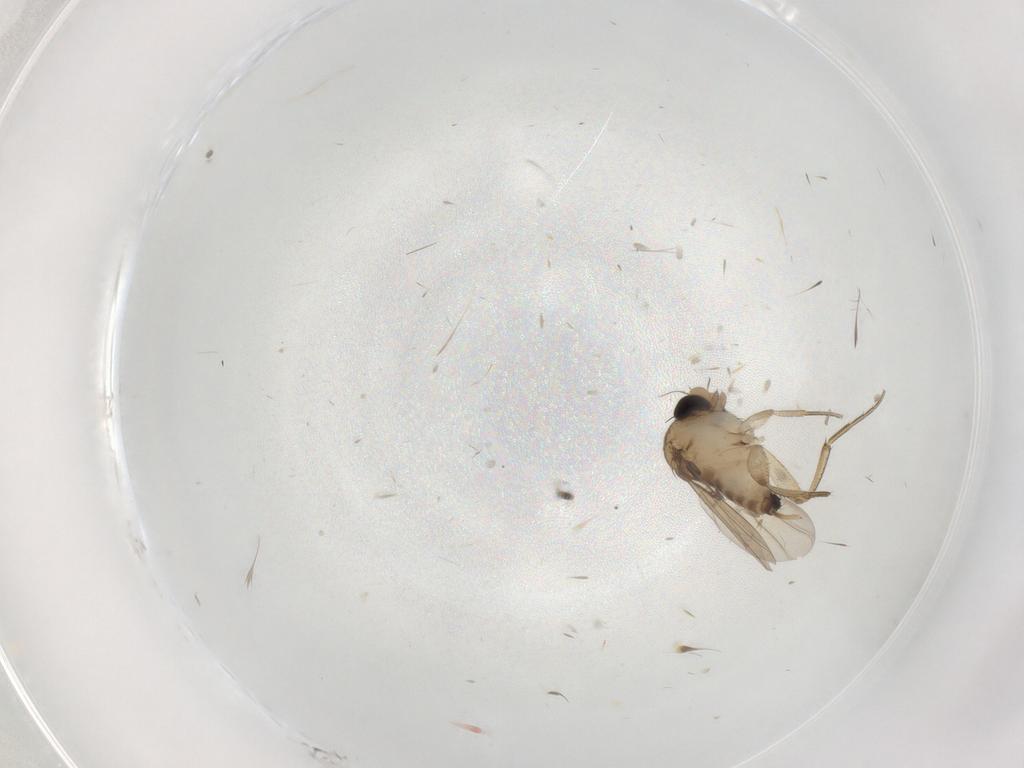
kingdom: Animalia
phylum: Arthropoda
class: Insecta
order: Diptera
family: Phoridae
